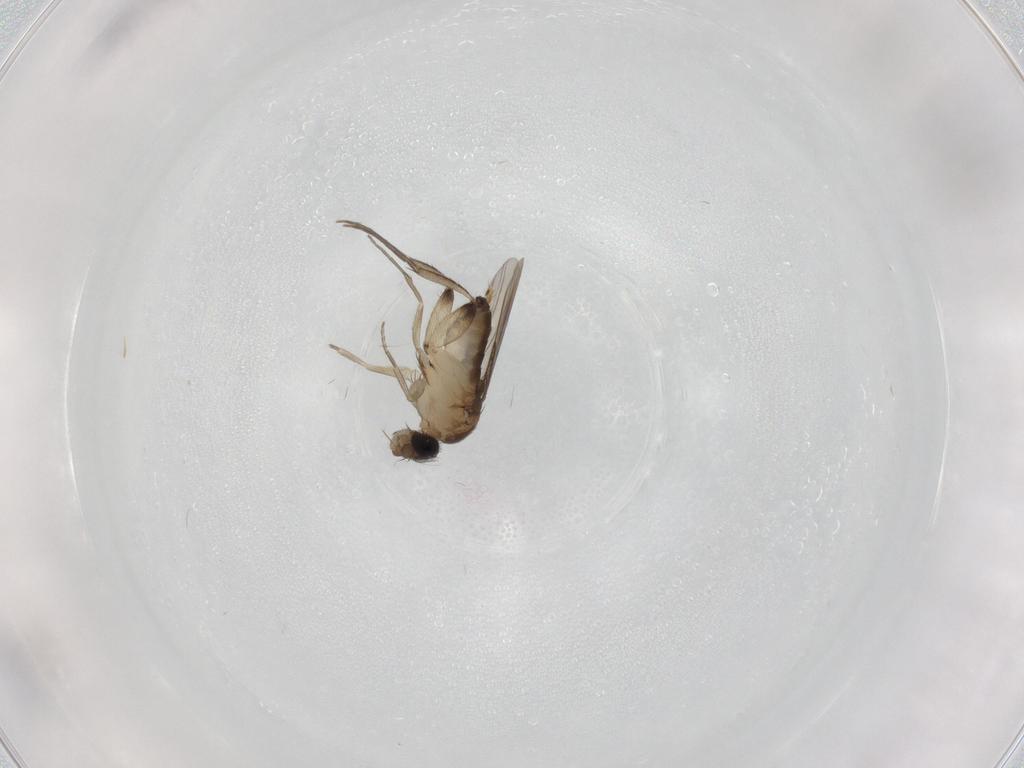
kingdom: Animalia
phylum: Arthropoda
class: Insecta
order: Diptera
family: Phoridae
